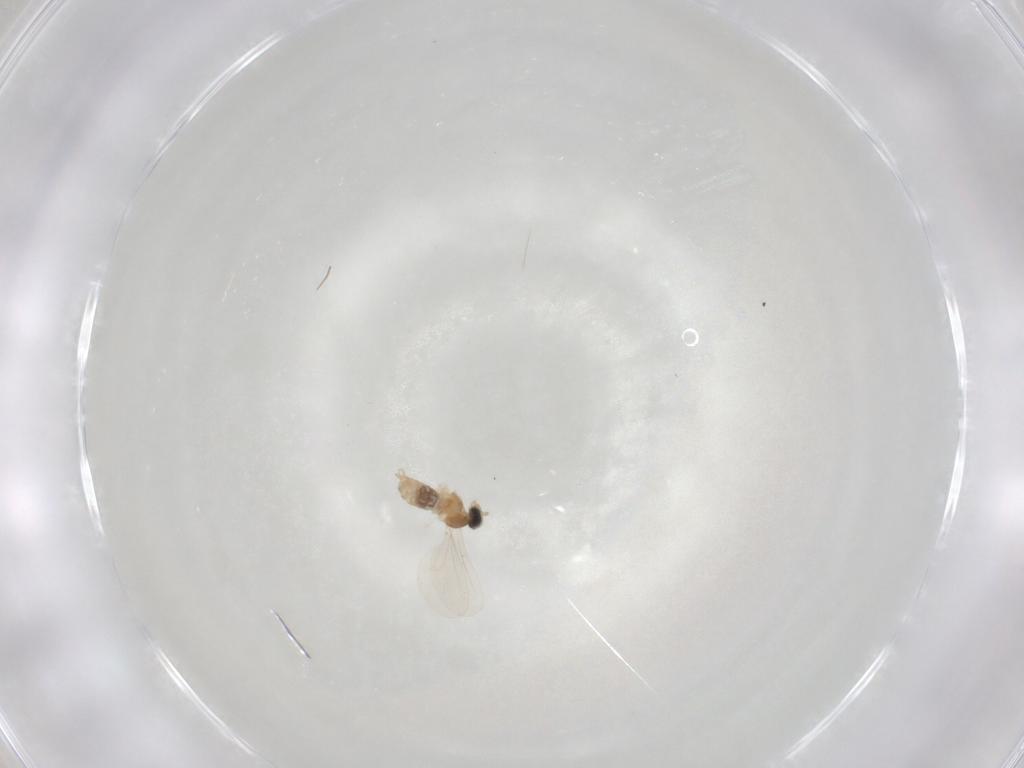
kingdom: Animalia
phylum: Arthropoda
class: Insecta
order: Diptera
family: Cecidomyiidae
